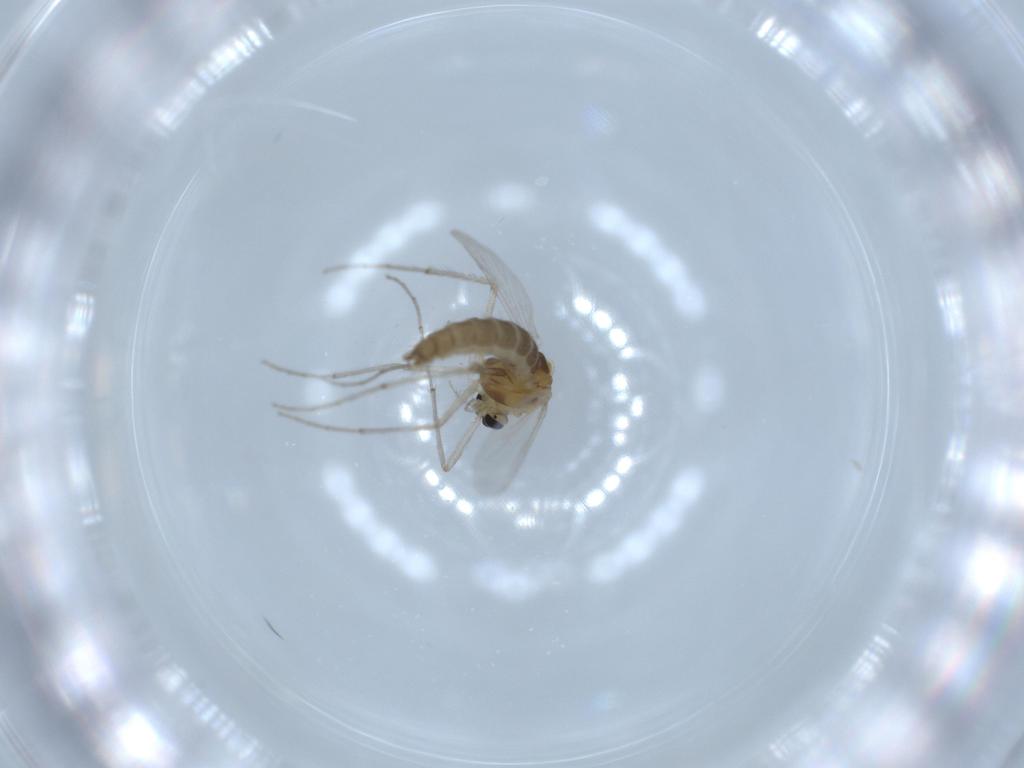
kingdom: Animalia
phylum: Arthropoda
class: Insecta
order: Diptera
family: Chironomidae
